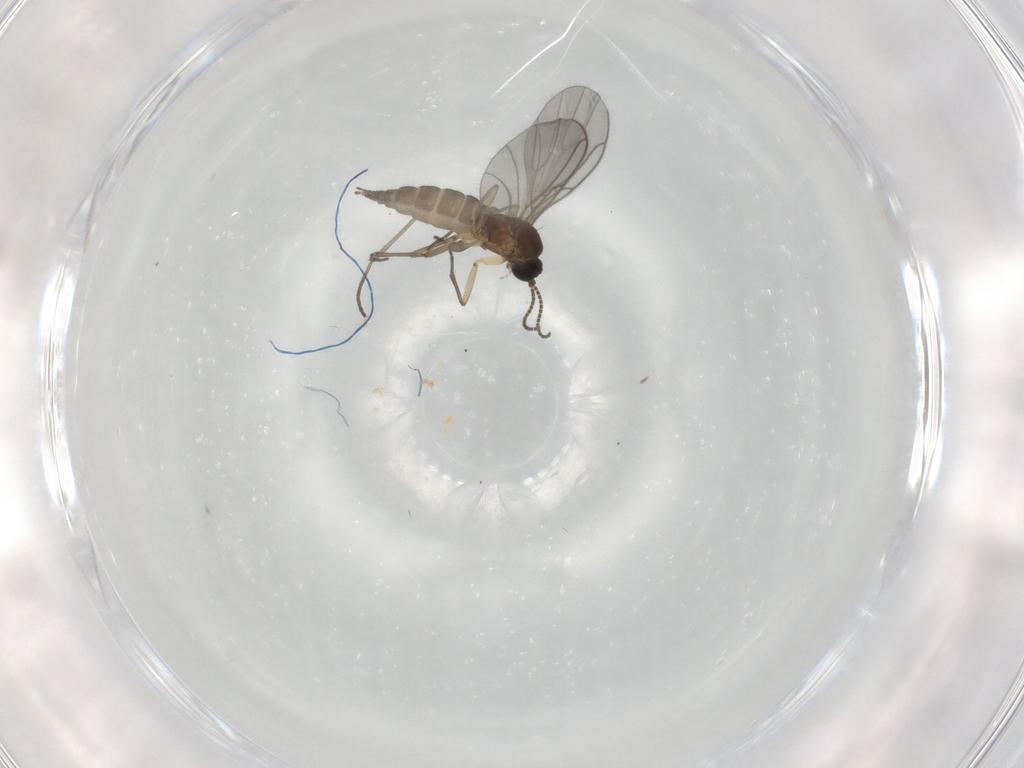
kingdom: Animalia
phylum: Arthropoda
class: Insecta
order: Diptera
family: Sciaridae
